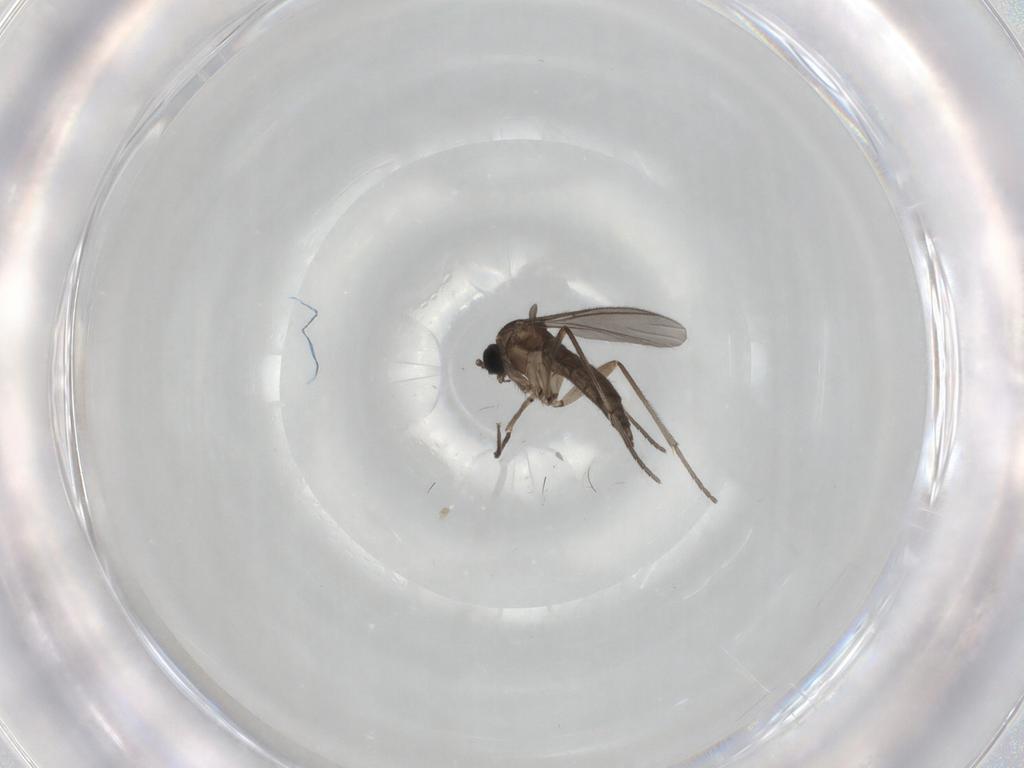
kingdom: Animalia
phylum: Arthropoda
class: Insecta
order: Diptera
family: Sciaridae
